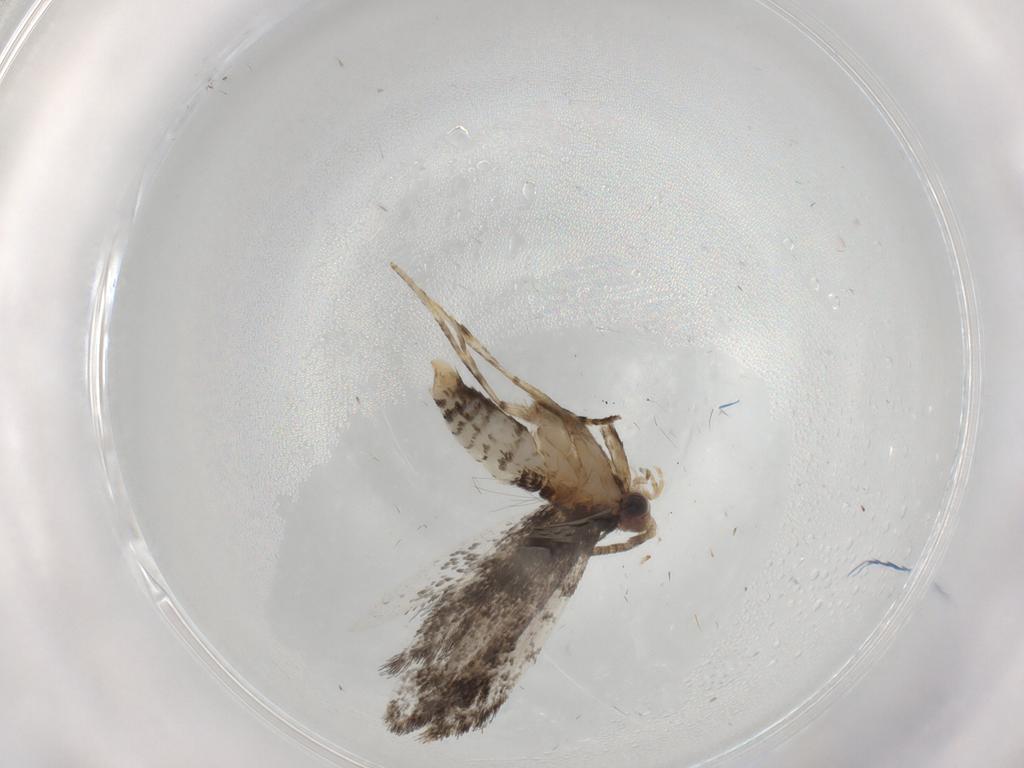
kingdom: Animalia
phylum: Arthropoda
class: Insecta
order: Lepidoptera
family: Tineidae
